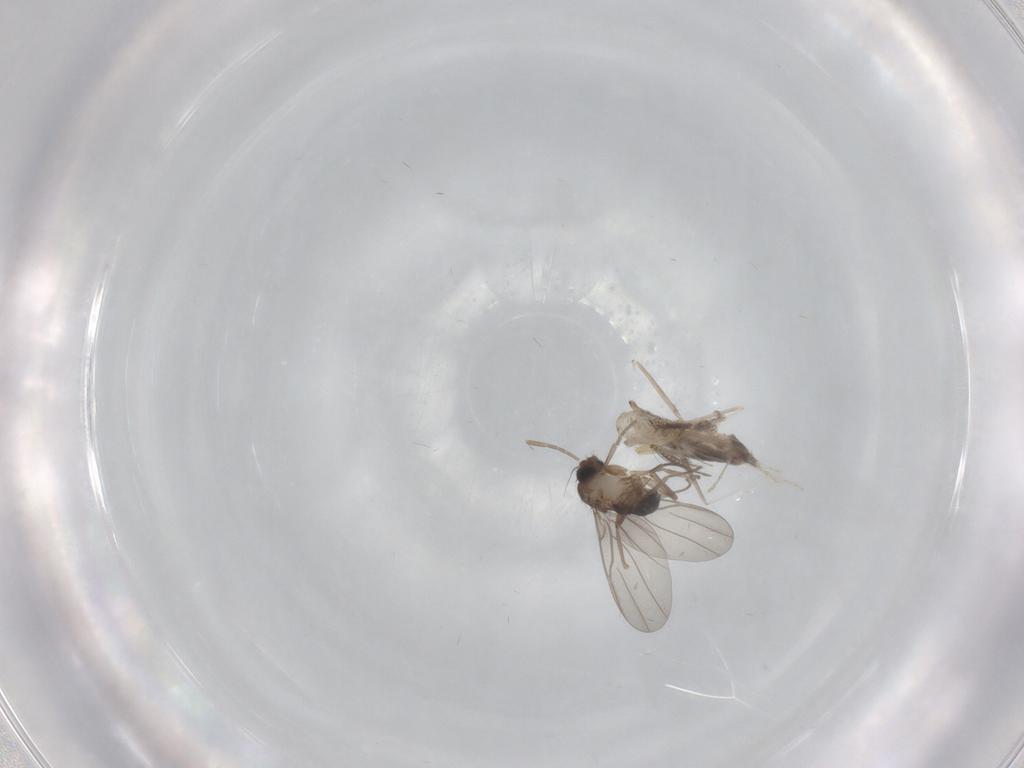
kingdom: Animalia
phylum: Arthropoda
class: Insecta
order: Diptera
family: Cecidomyiidae
